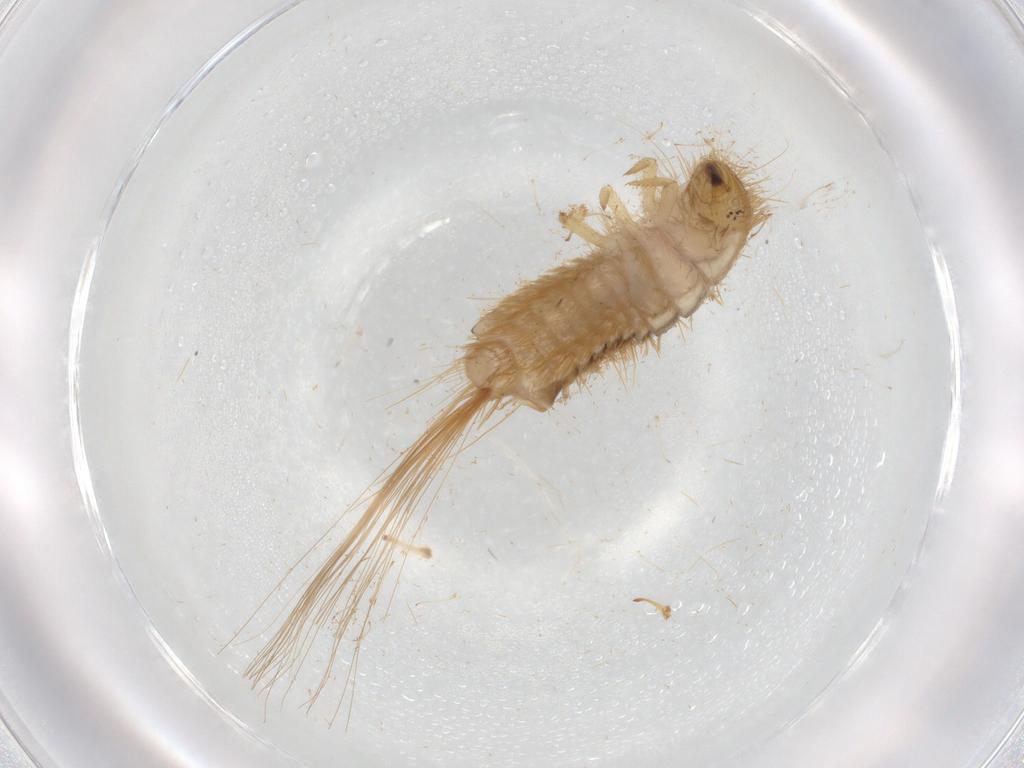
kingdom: Animalia
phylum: Arthropoda
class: Insecta
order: Coleoptera
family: Dermestidae
